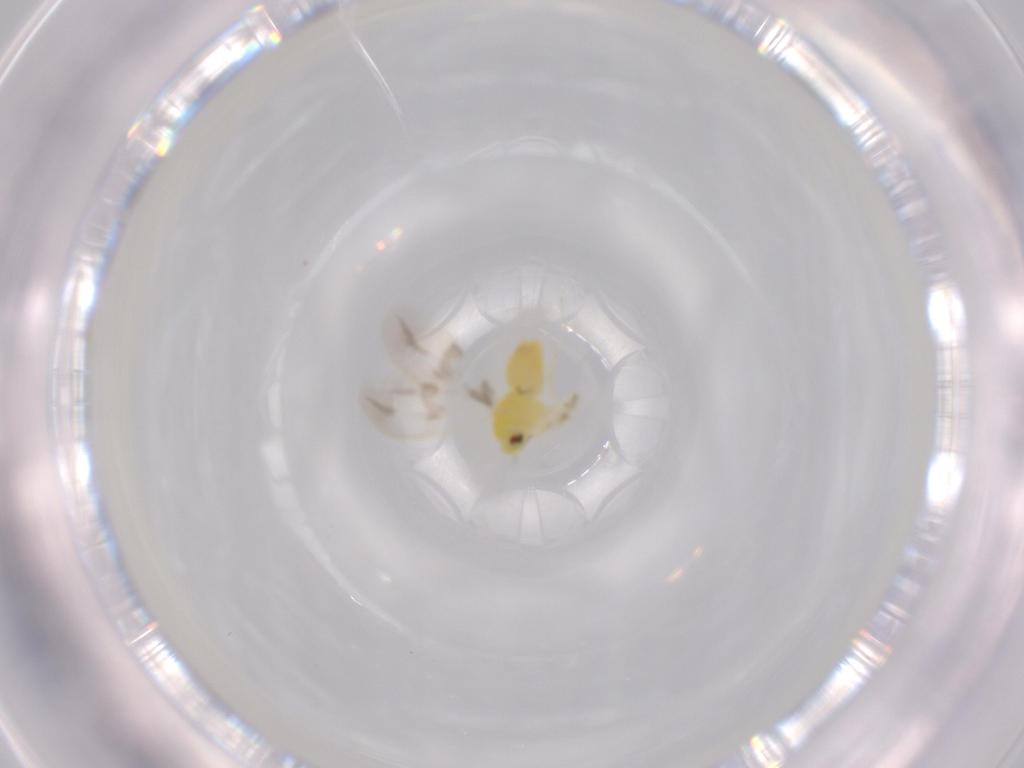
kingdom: Animalia
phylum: Arthropoda
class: Insecta
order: Hemiptera
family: Aleyrodidae
